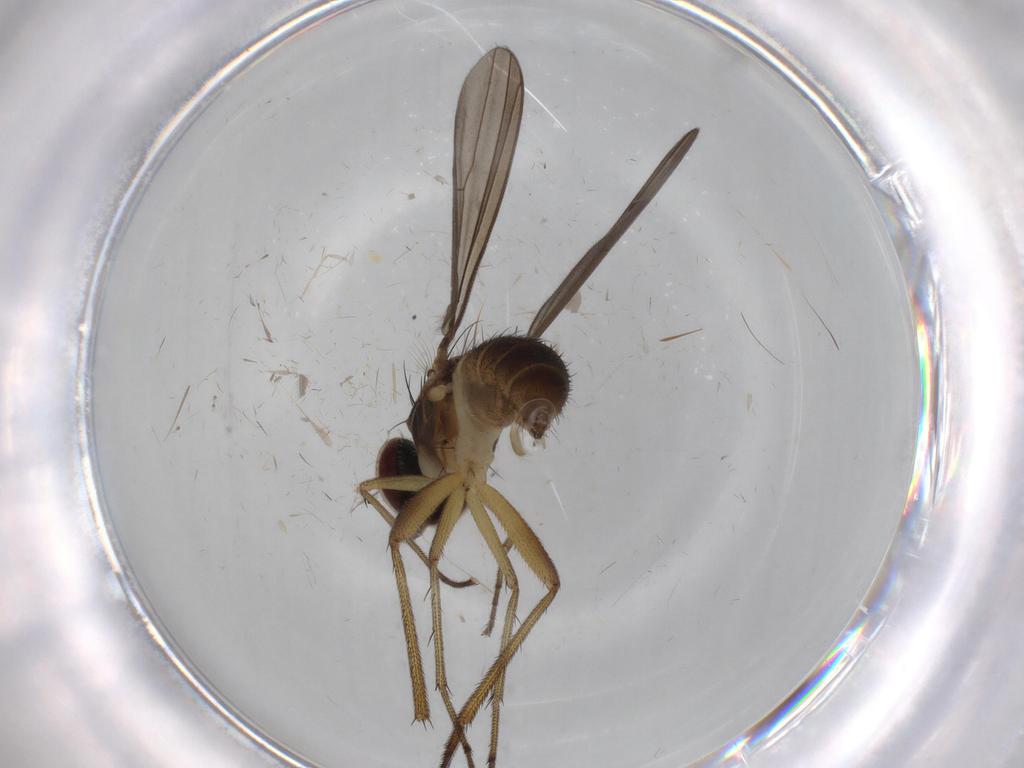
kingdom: Animalia
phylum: Arthropoda
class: Insecta
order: Diptera
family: Dolichopodidae
